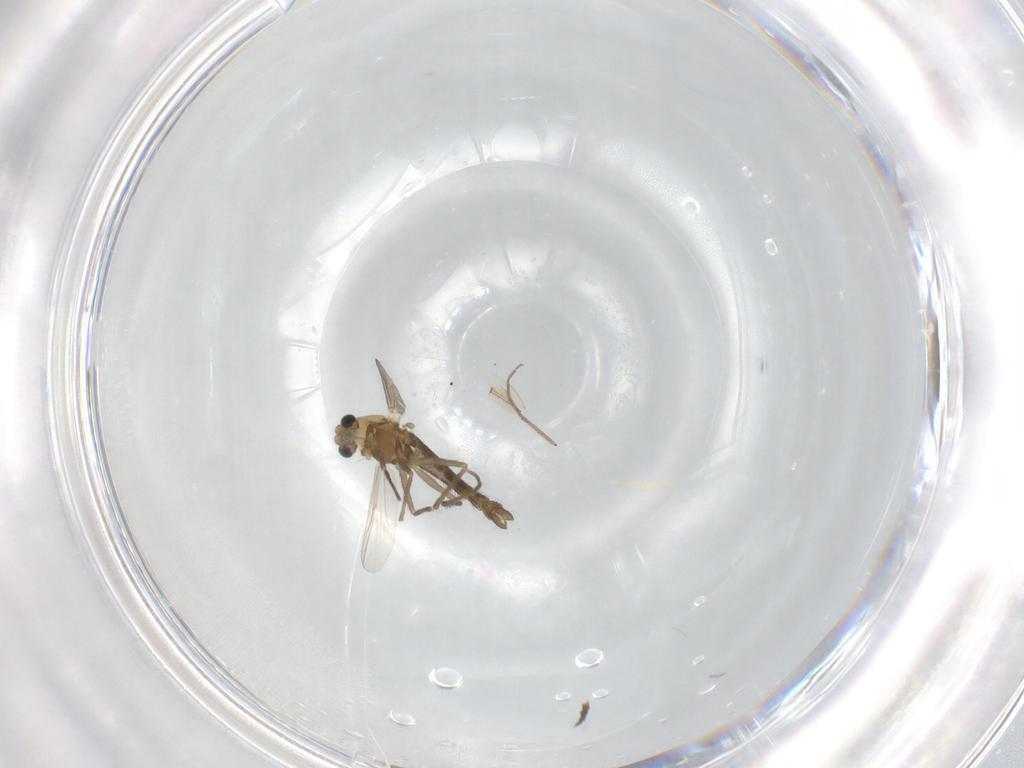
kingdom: Animalia
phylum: Arthropoda
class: Insecta
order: Diptera
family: Chironomidae
